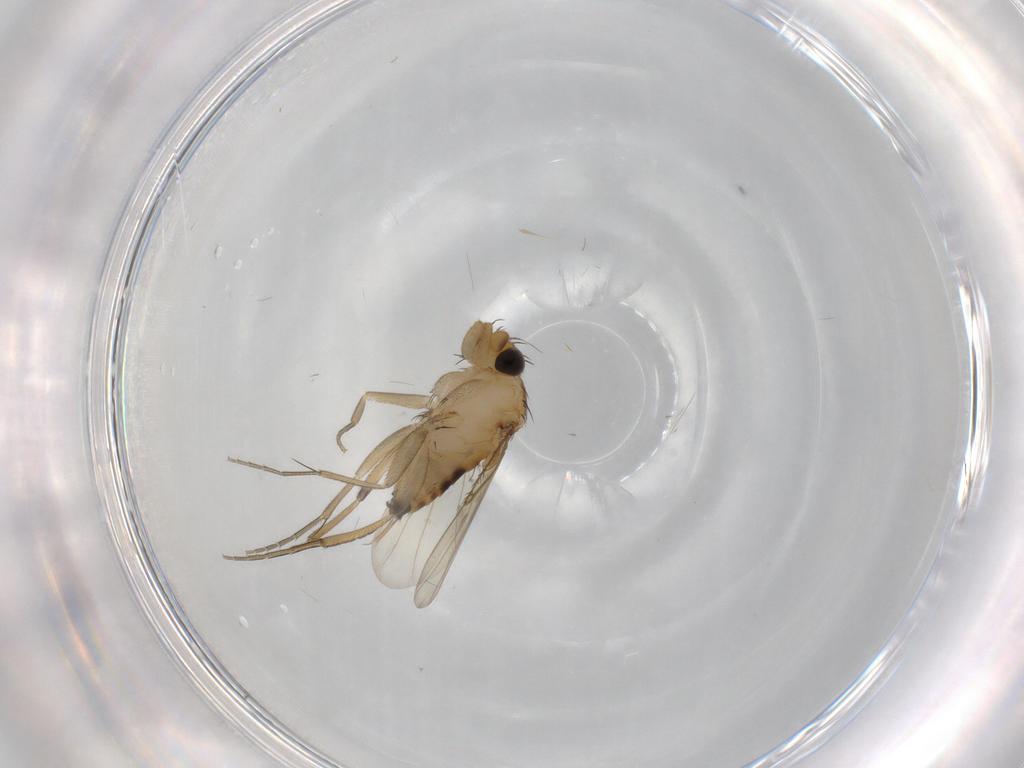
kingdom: Animalia
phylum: Arthropoda
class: Insecta
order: Diptera
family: Phoridae
